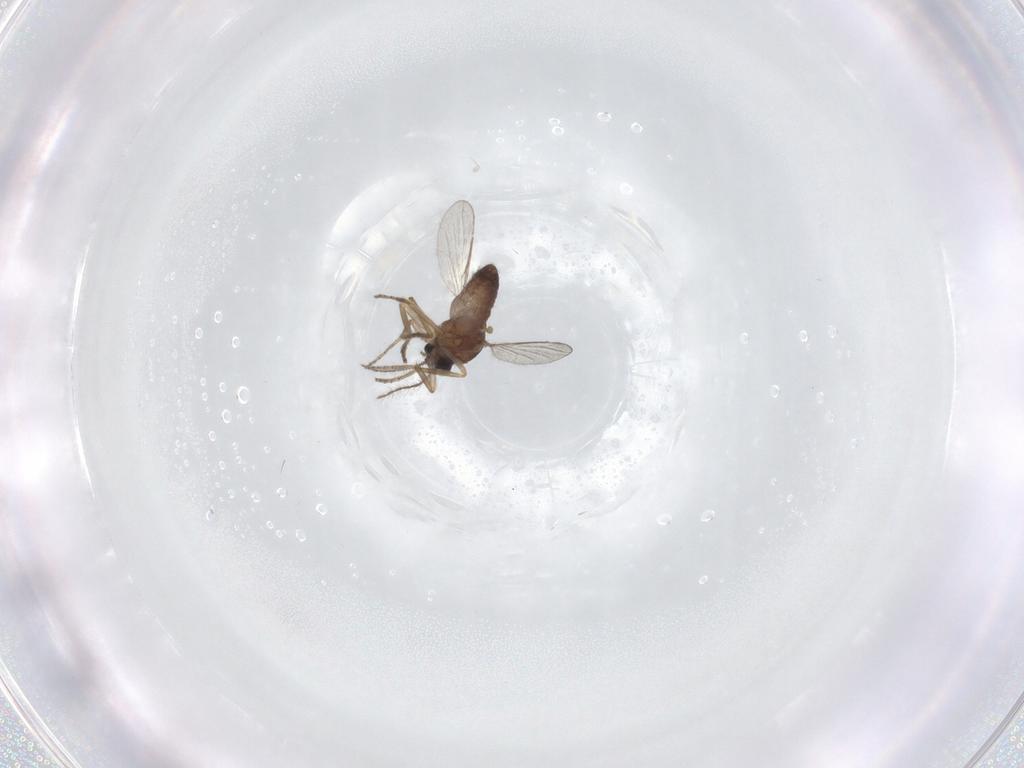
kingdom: Animalia
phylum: Arthropoda
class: Insecta
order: Diptera
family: Ceratopogonidae
